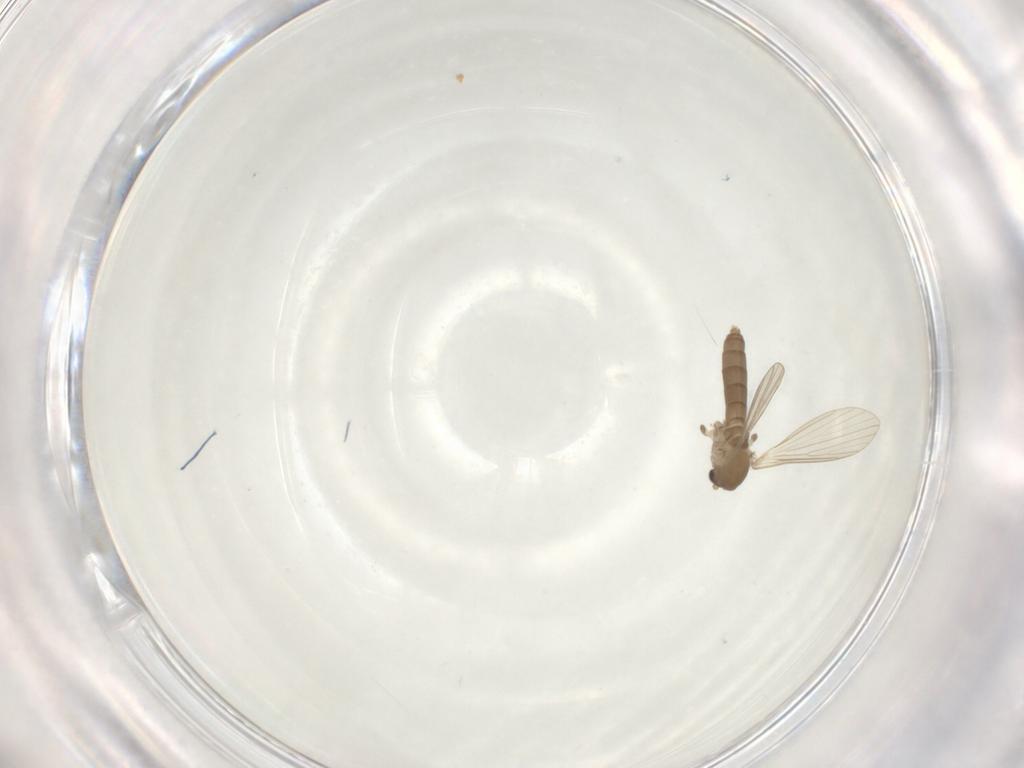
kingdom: Animalia
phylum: Arthropoda
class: Insecta
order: Diptera
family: Psychodidae
